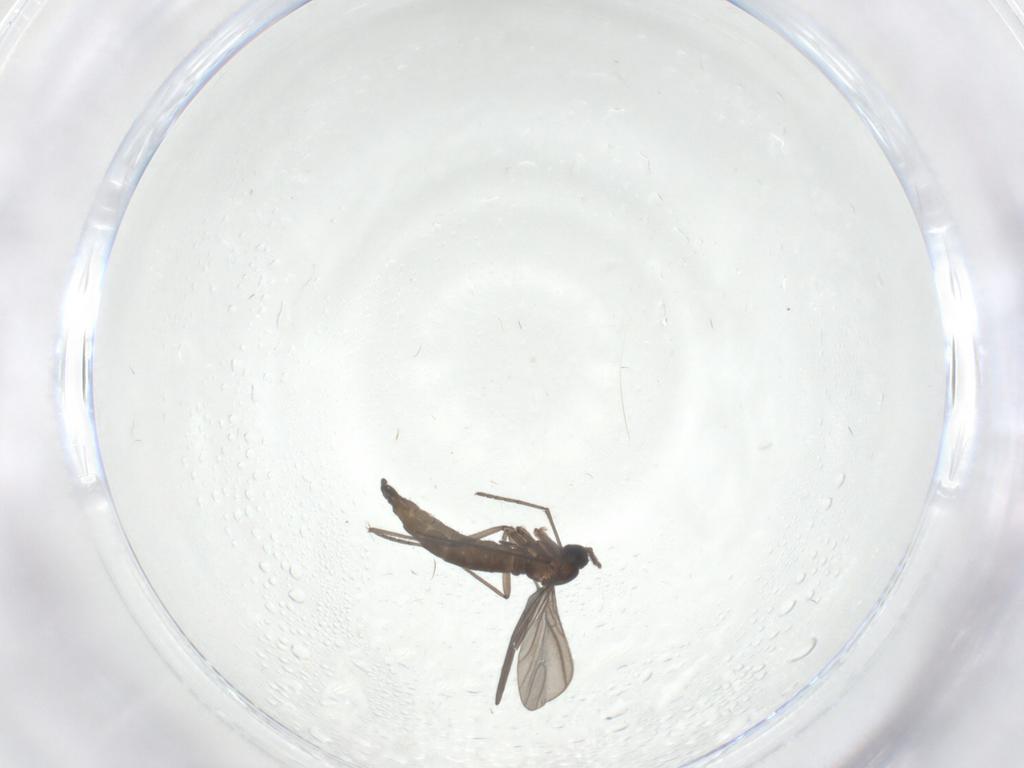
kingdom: Animalia
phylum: Arthropoda
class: Insecta
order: Diptera
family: Sciaridae
